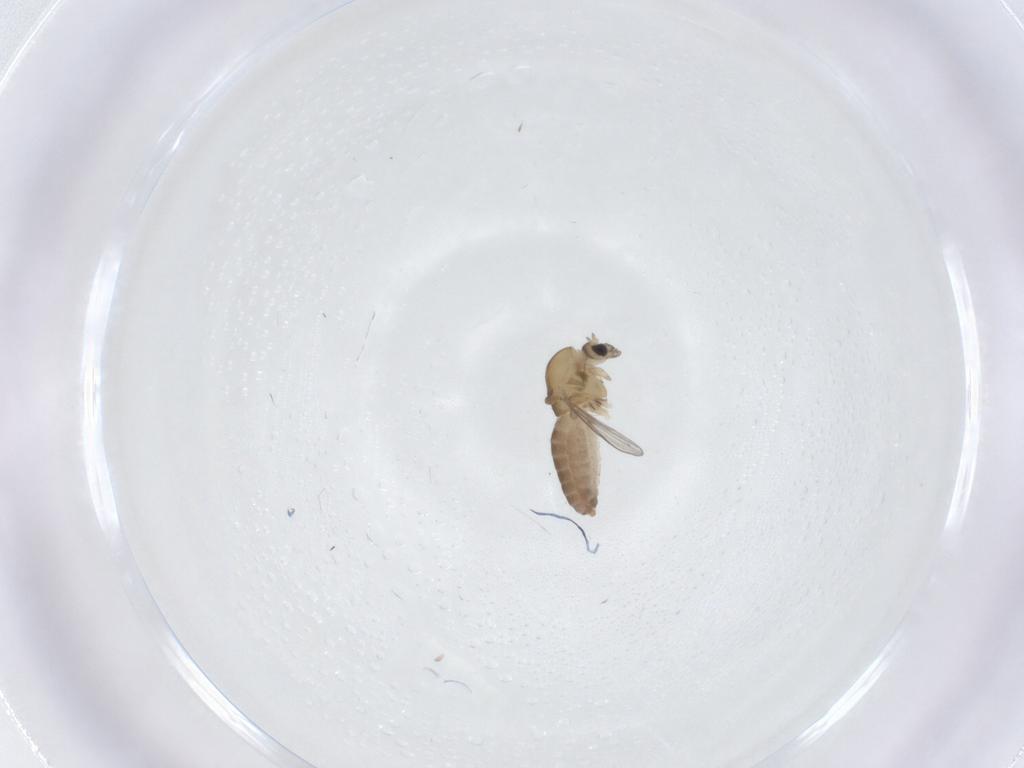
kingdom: Animalia
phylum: Arthropoda
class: Insecta
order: Diptera
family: Chironomidae
